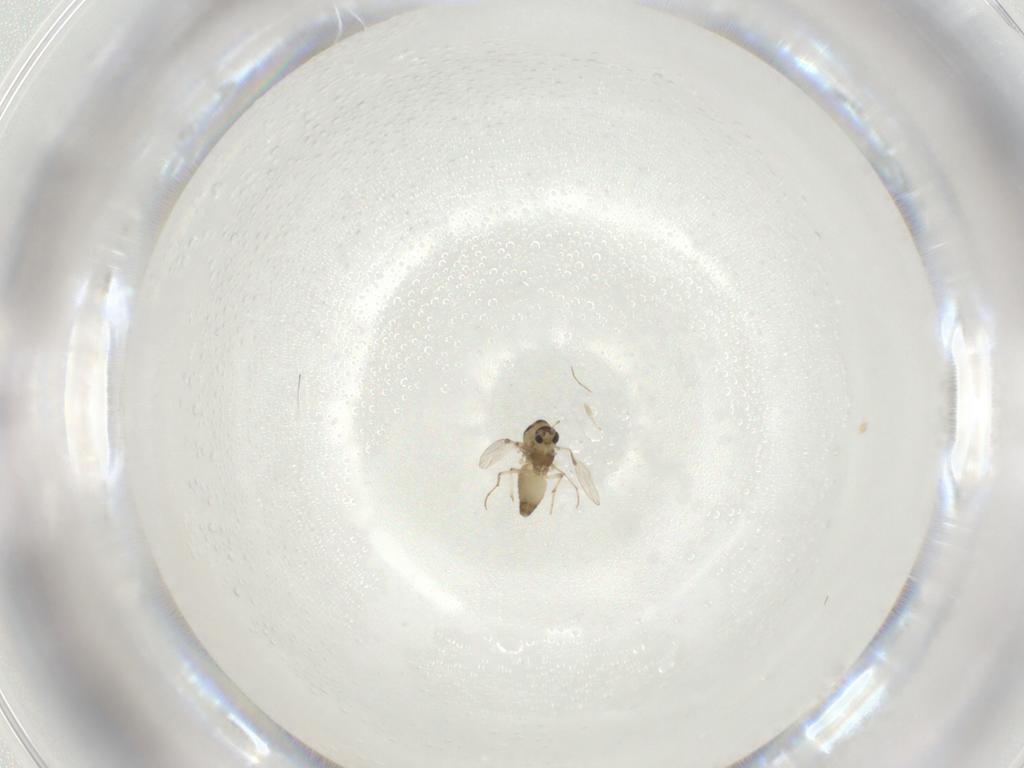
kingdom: Animalia
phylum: Arthropoda
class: Insecta
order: Diptera
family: Chironomidae
